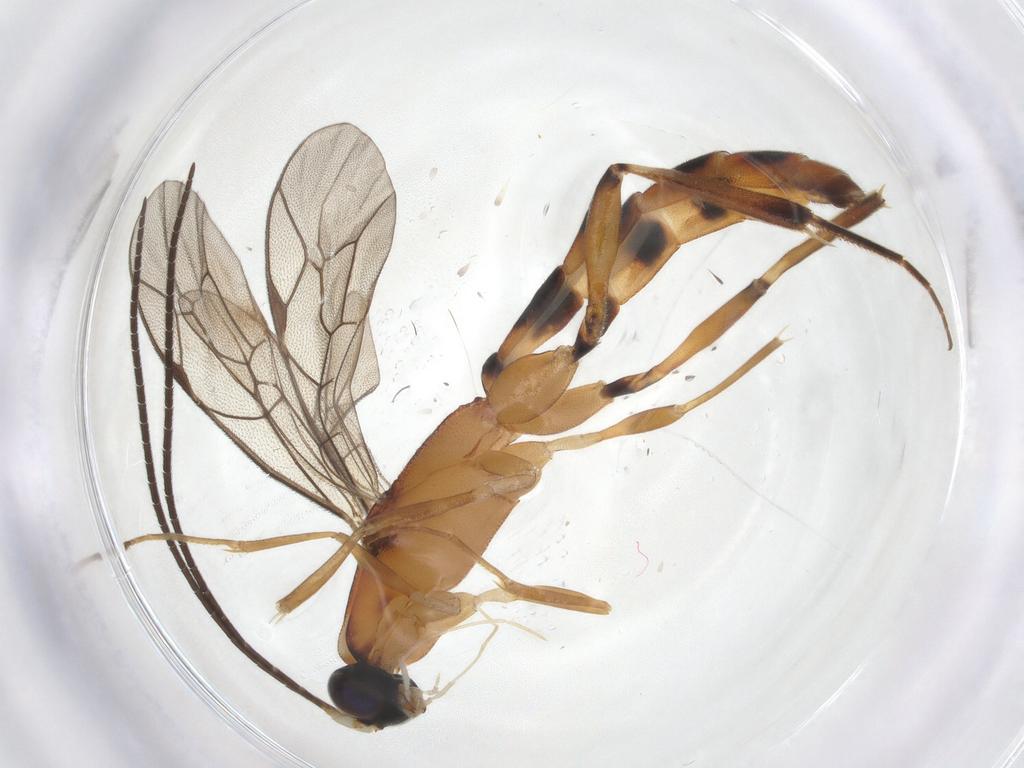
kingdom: Animalia
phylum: Arthropoda
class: Insecta
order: Hymenoptera
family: Ichneumonidae
